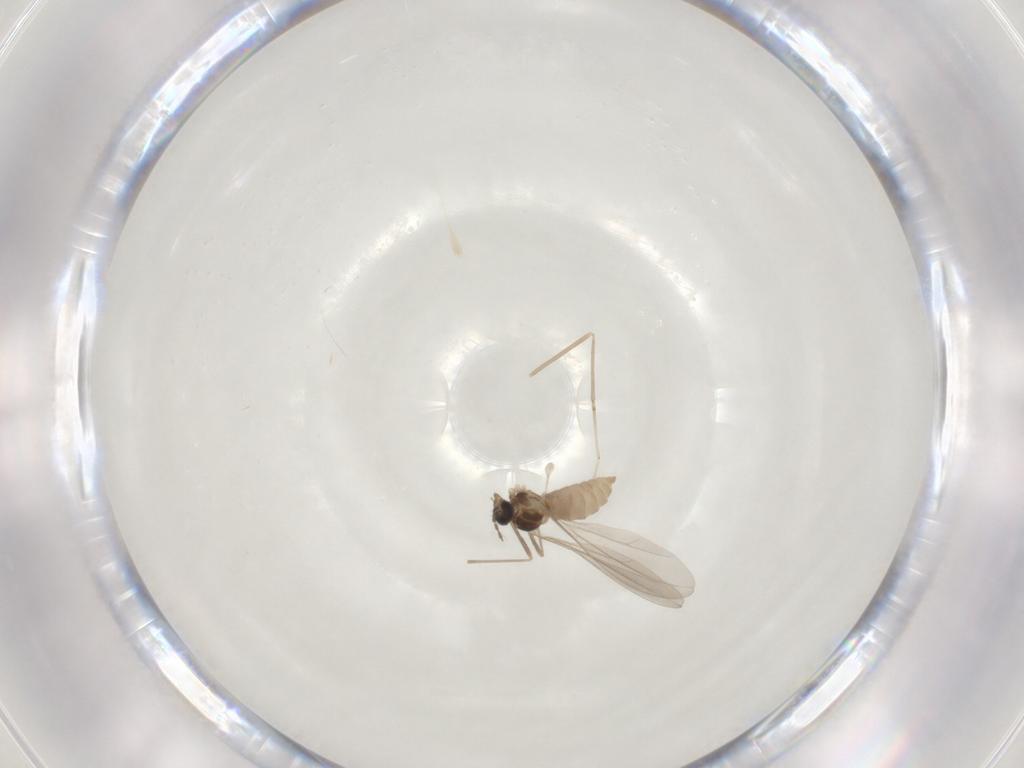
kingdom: Animalia
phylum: Arthropoda
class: Insecta
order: Diptera
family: Cecidomyiidae
